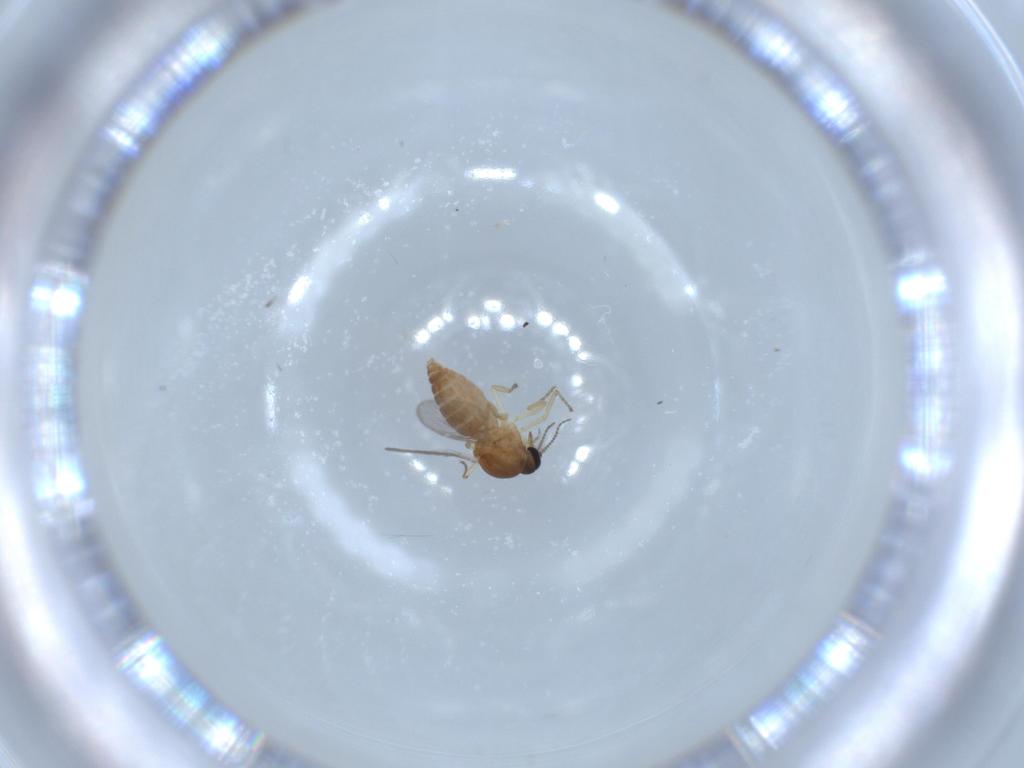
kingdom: Animalia
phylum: Arthropoda
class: Insecta
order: Diptera
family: Ceratopogonidae
